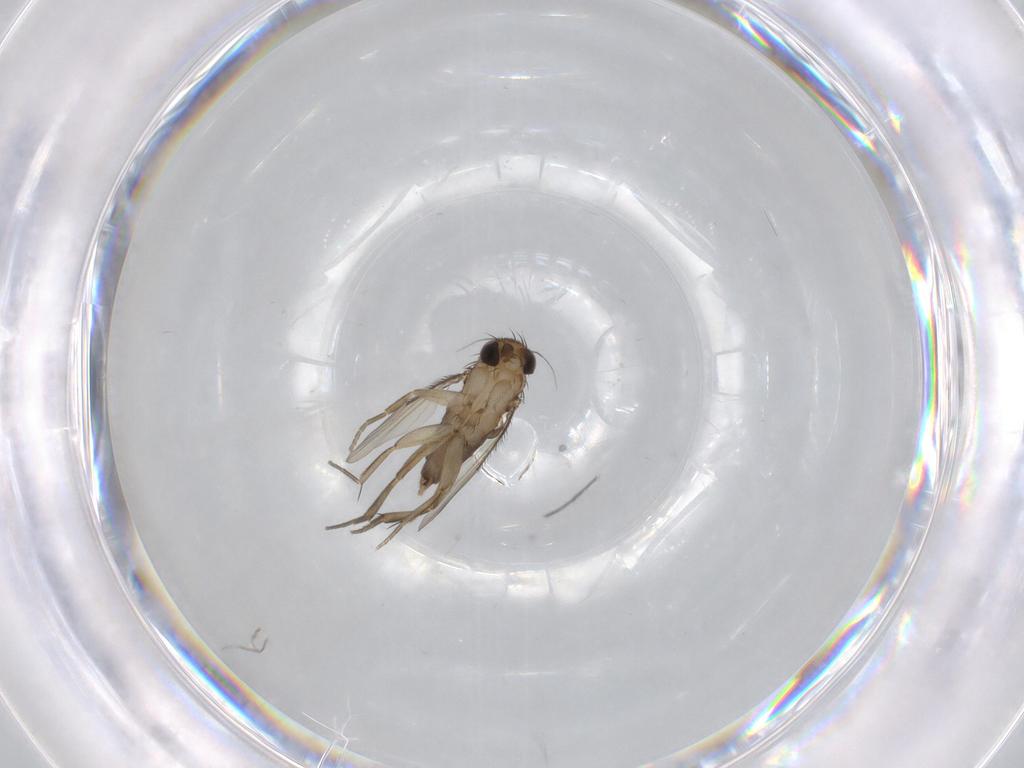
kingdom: Animalia
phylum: Arthropoda
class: Insecta
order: Diptera
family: Phoridae
